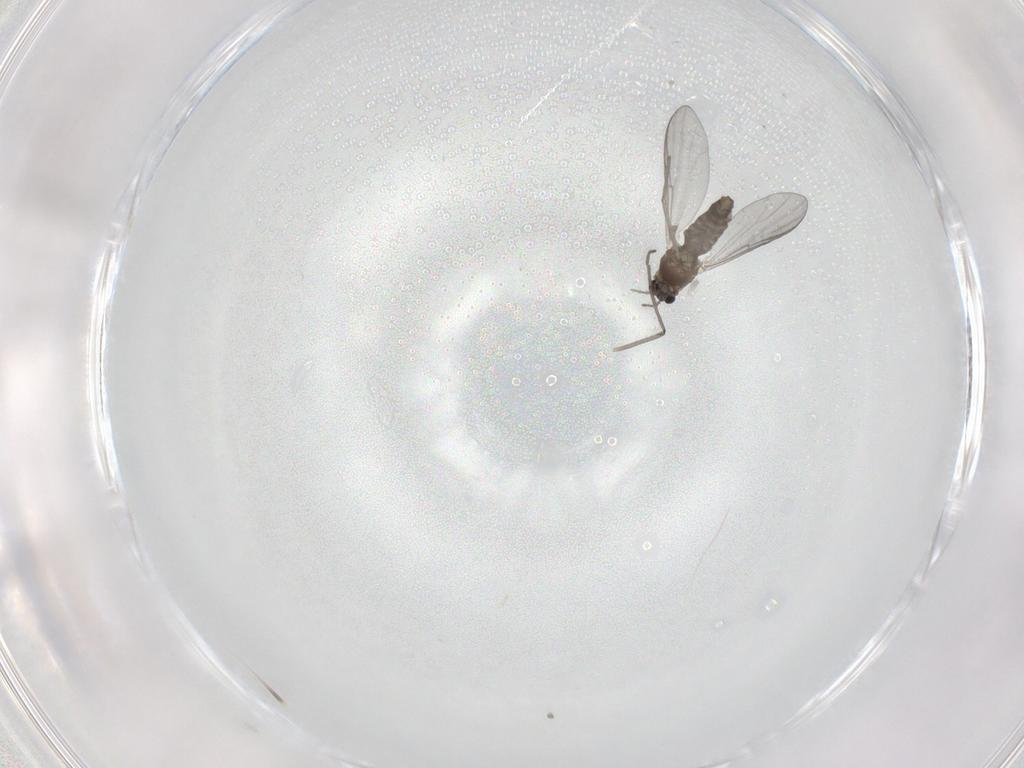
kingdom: Animalia
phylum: Arthropoda
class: Insecta
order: Diptera
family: Chironomidae
